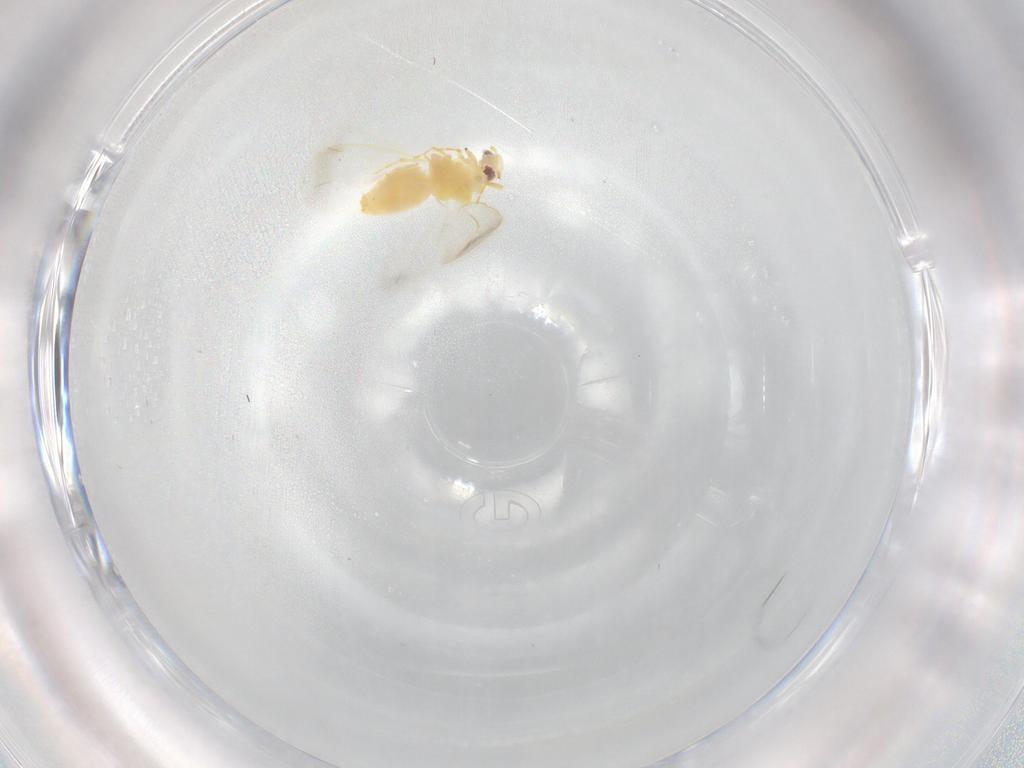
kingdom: Animalia
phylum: Arthropoda
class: Insecta
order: Hemiptera
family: Aleyrodidae
